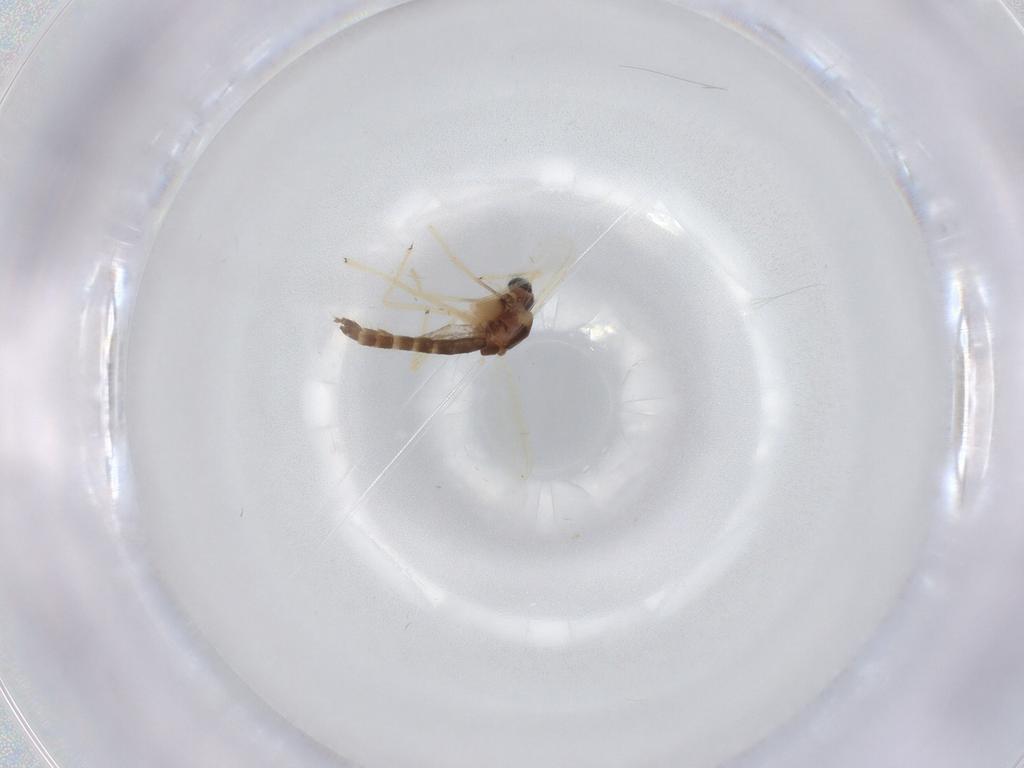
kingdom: Animalia
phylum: Arthropoda
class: Insecta
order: Diptera
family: Chironomidae
